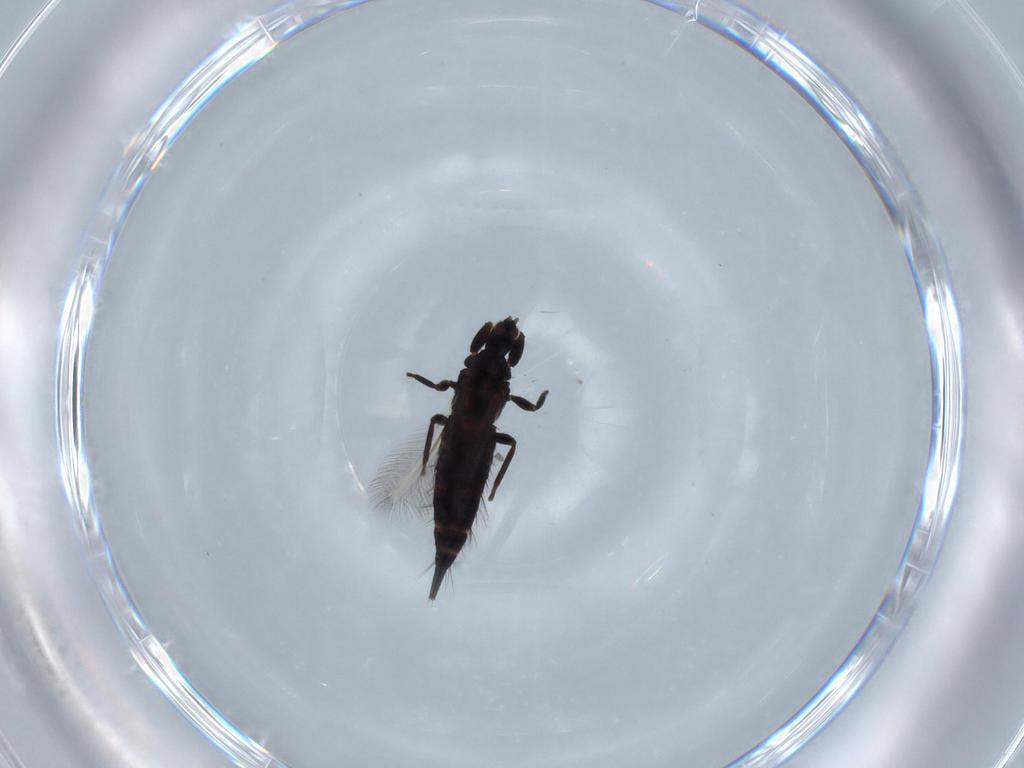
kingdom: Animalia
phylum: Arthropoda
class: Insecta
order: Thysanoptera
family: Phlaeothripidae
